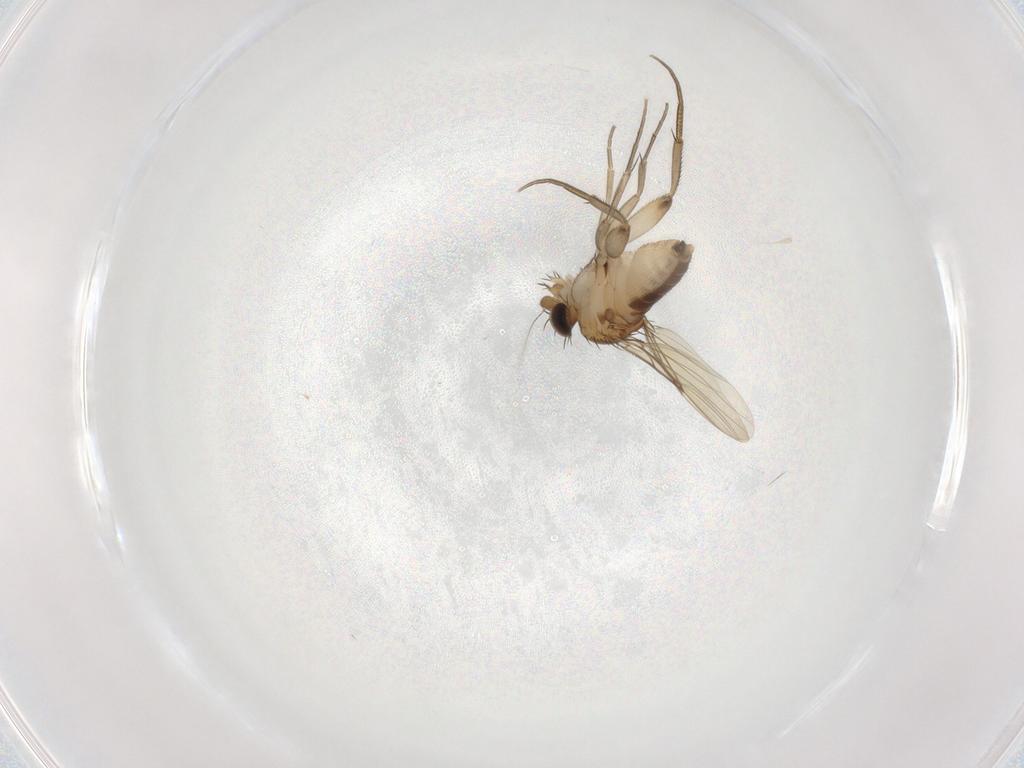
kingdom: Animalia
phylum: Arthropoda
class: Insecta
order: Diptera
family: Phoridae
